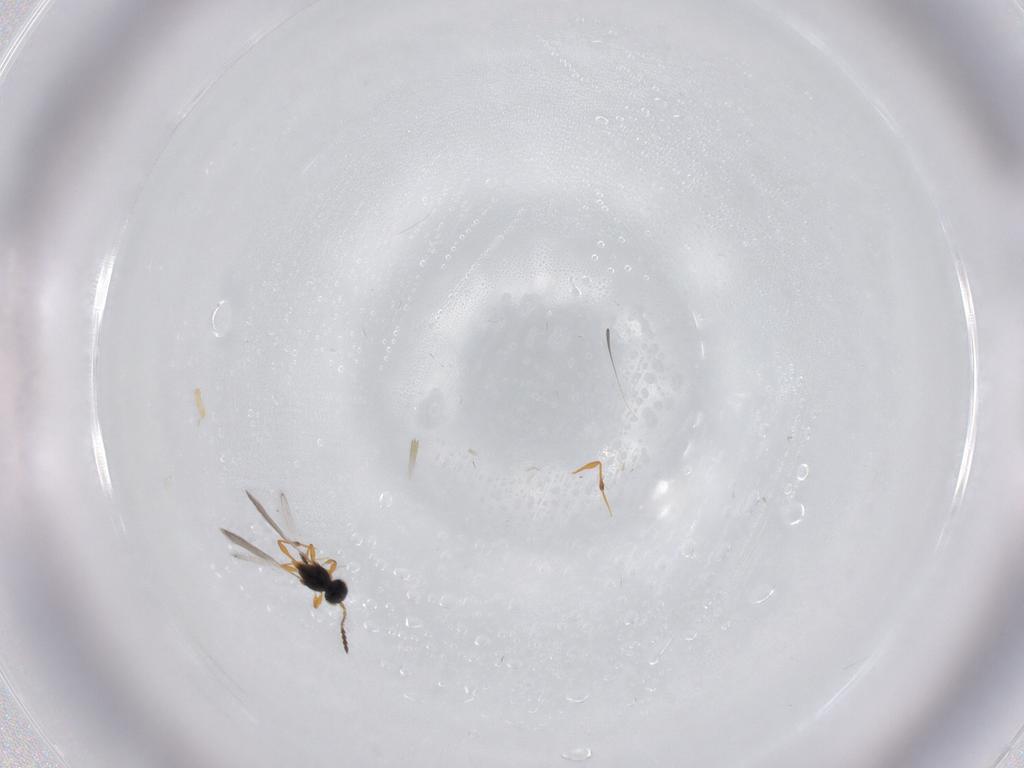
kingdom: Animalia
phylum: Arthropoda
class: Insecta
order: Hymenoptera
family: Platygastridae
